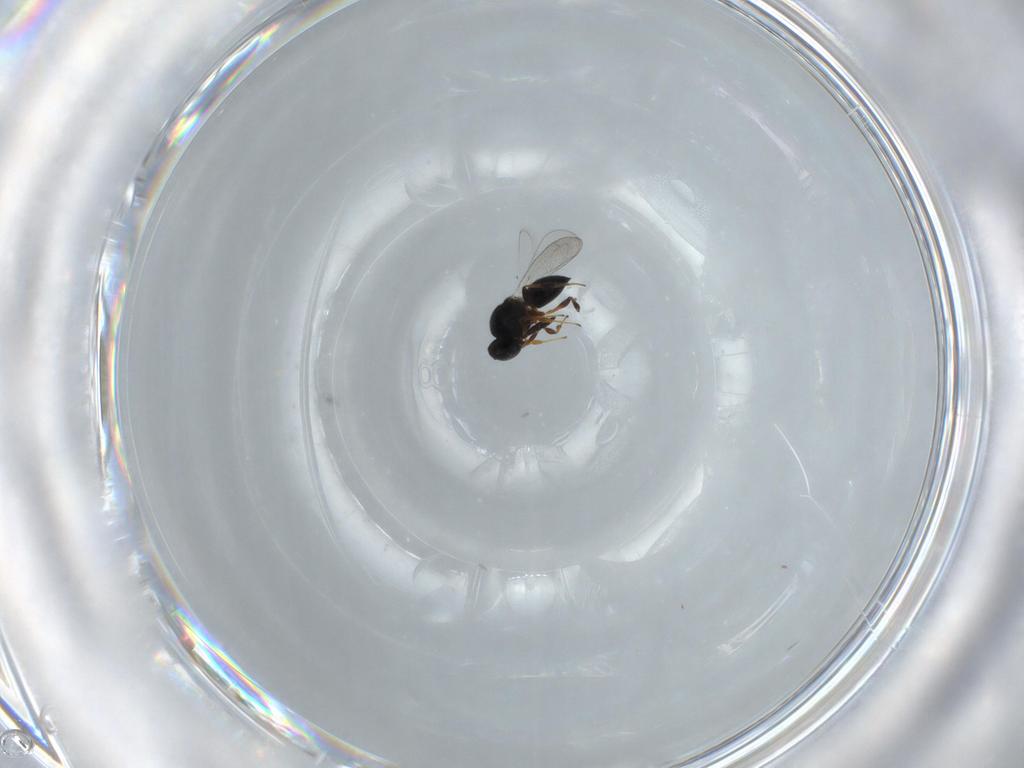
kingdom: Animalia
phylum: Arthropoda
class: Insecta
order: Hymenoptera
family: Platygastridae
